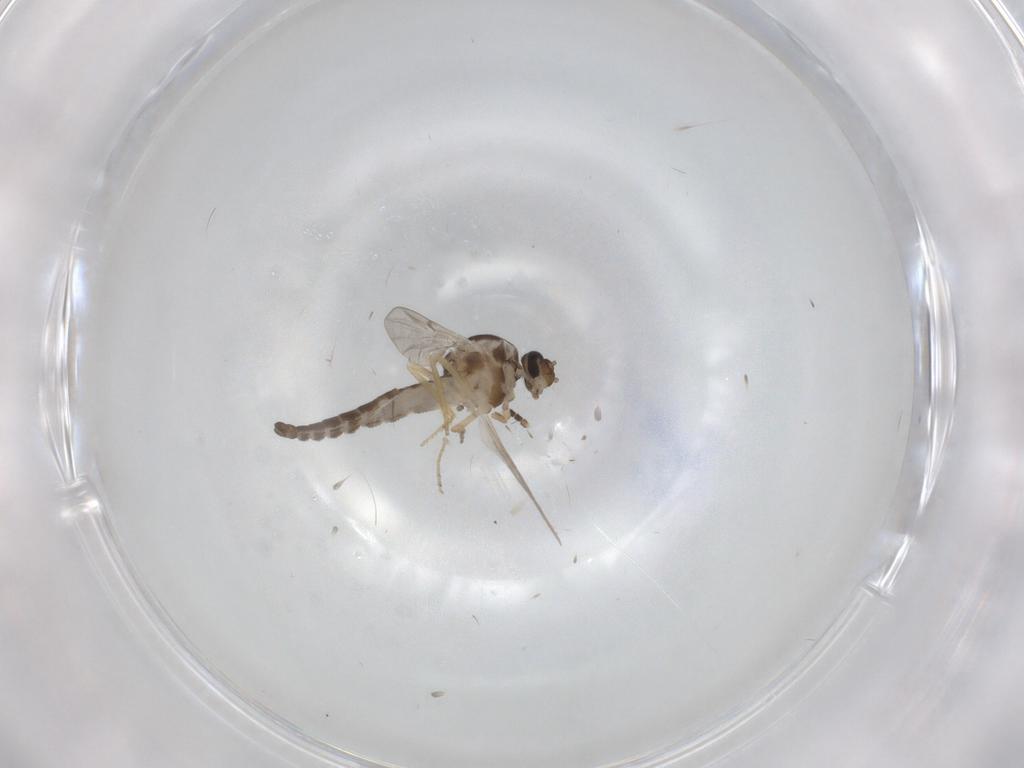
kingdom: Animalia
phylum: Arthropoda
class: Insecta
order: Diptera
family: Ceratopogonidae
